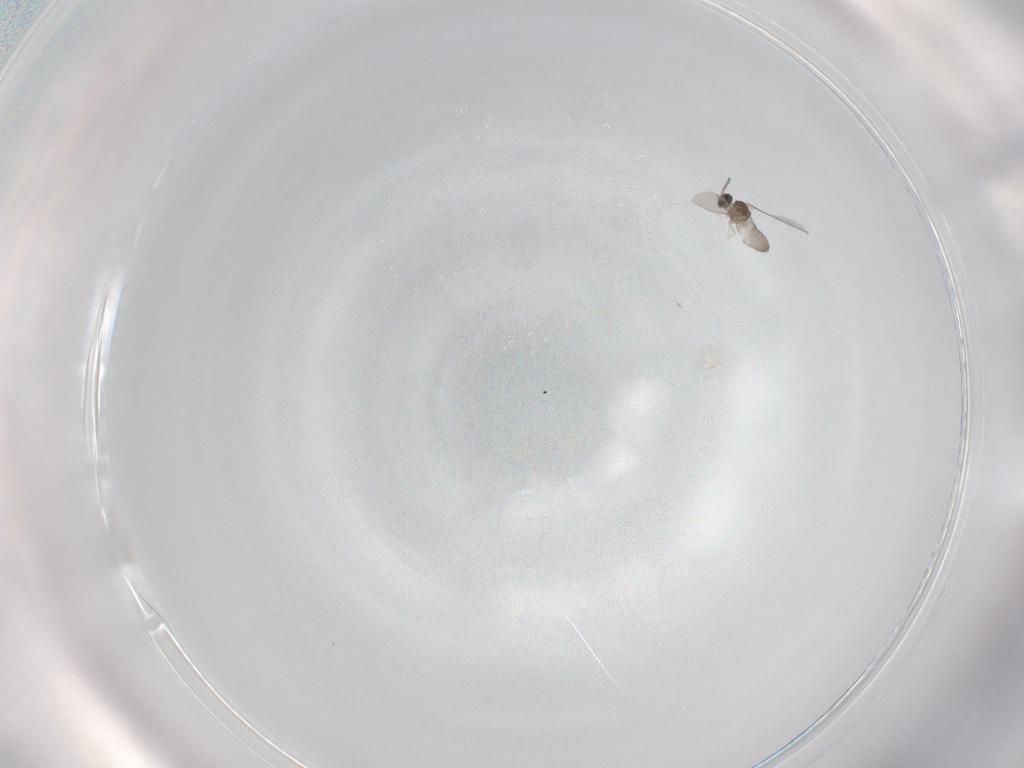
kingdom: Animalia
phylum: Arthropoda
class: Insecta
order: Diptera
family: Cecidomyiidae
